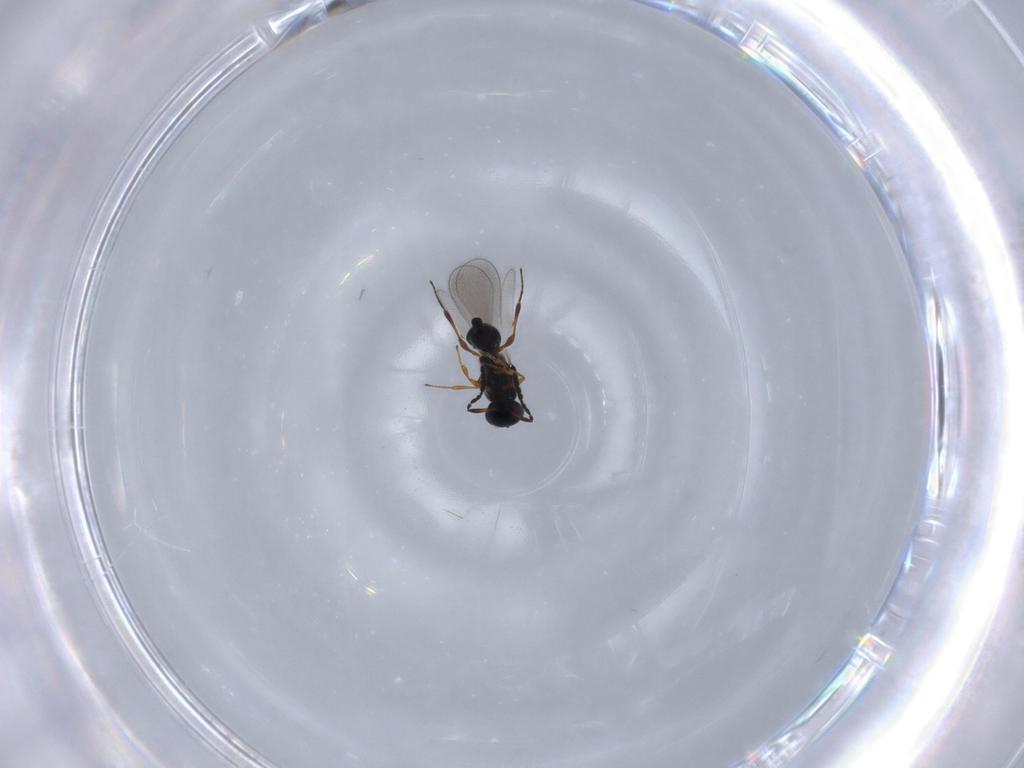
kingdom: Animalia
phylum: Arthropoda
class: Insecta
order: Hymenoptera
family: Platygastridae
